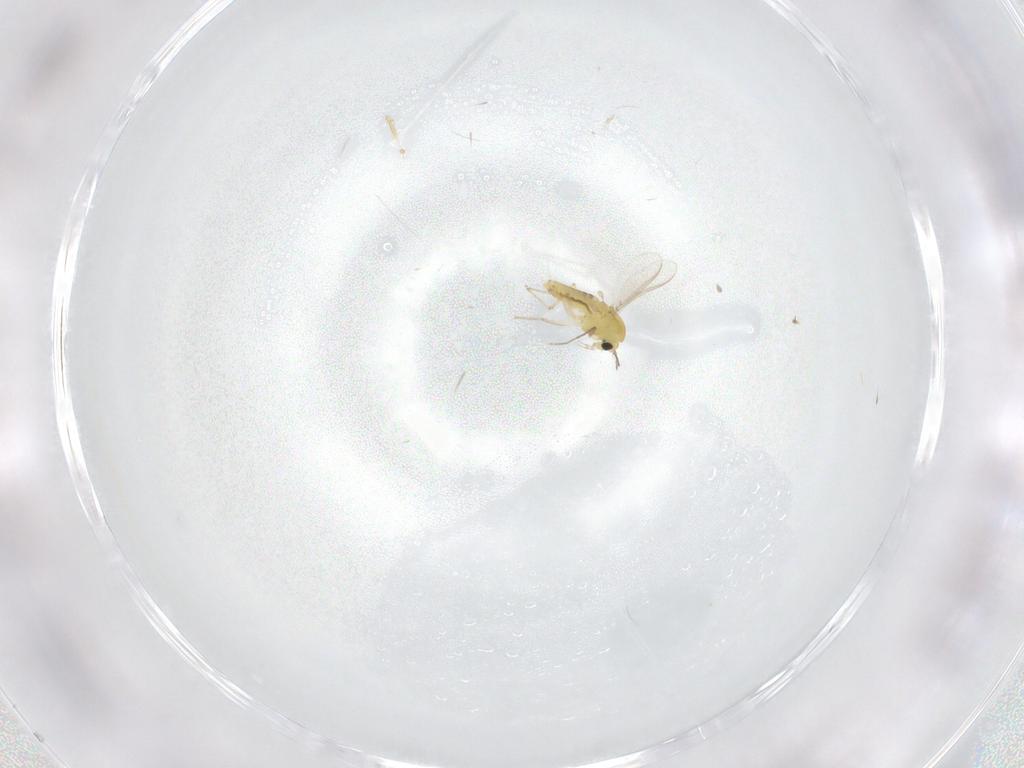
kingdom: Animalia
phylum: Arthropoda
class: Insecta
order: Diptera
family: Chironomidae
